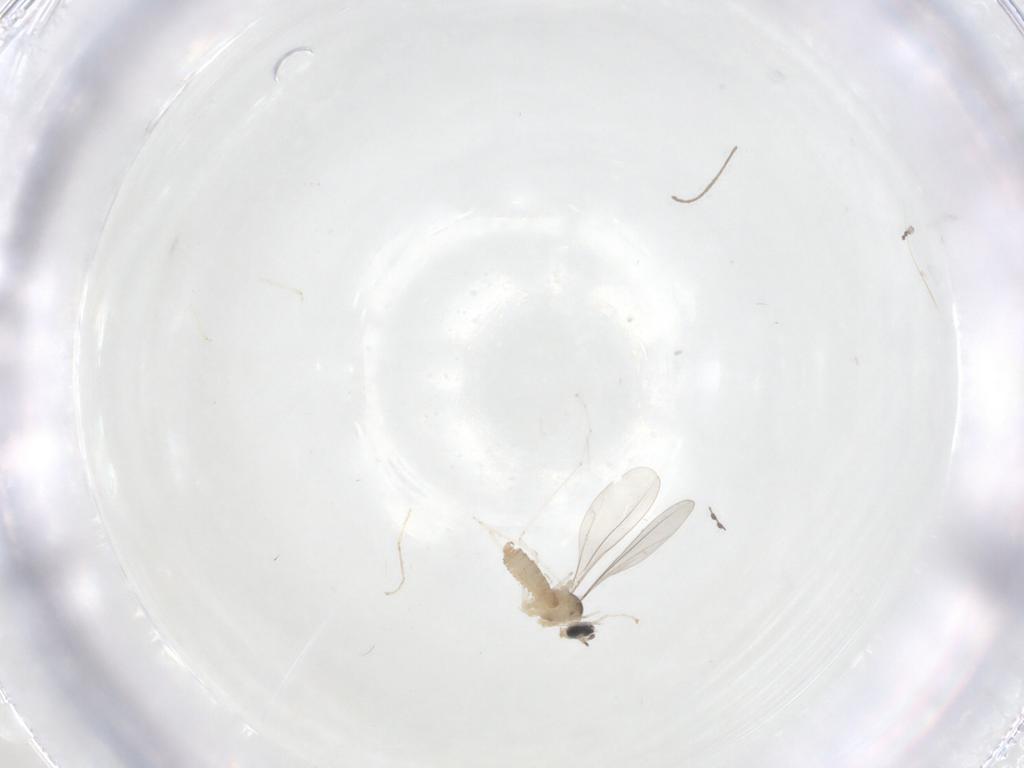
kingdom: Animalia
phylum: Arthropoda
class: Insecta
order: Diptera
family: Cecidomyiidae
